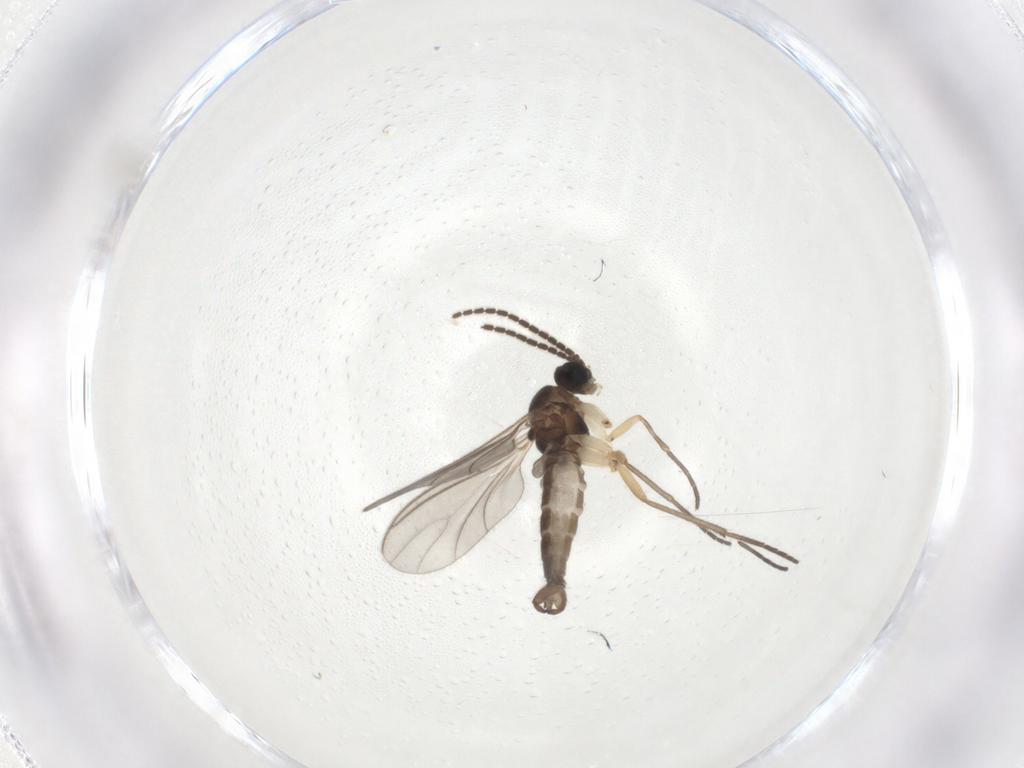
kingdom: Animalia
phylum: Arthropoda
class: Insecta
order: Diptera
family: Sciaridae
